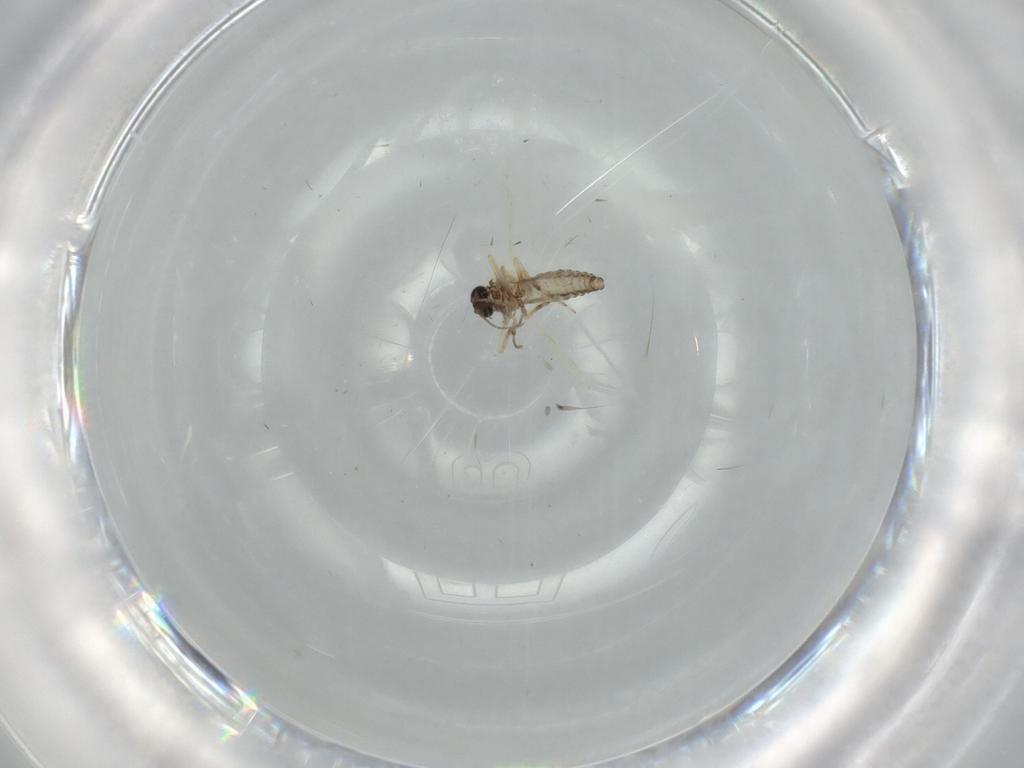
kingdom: Animalia
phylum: Arthropoda
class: Insecta
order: Diptera
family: Ceratopogonidae
